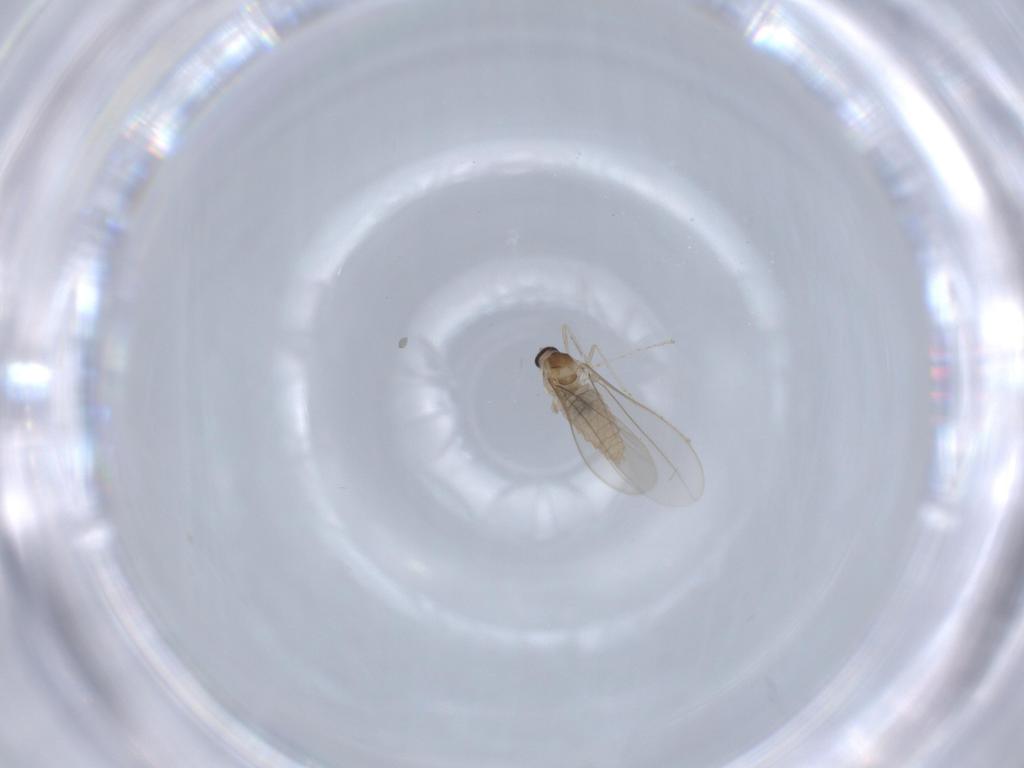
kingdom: Animalia
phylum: Arthropoda
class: Insecta
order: Diptera
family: Cecidomyiidae
